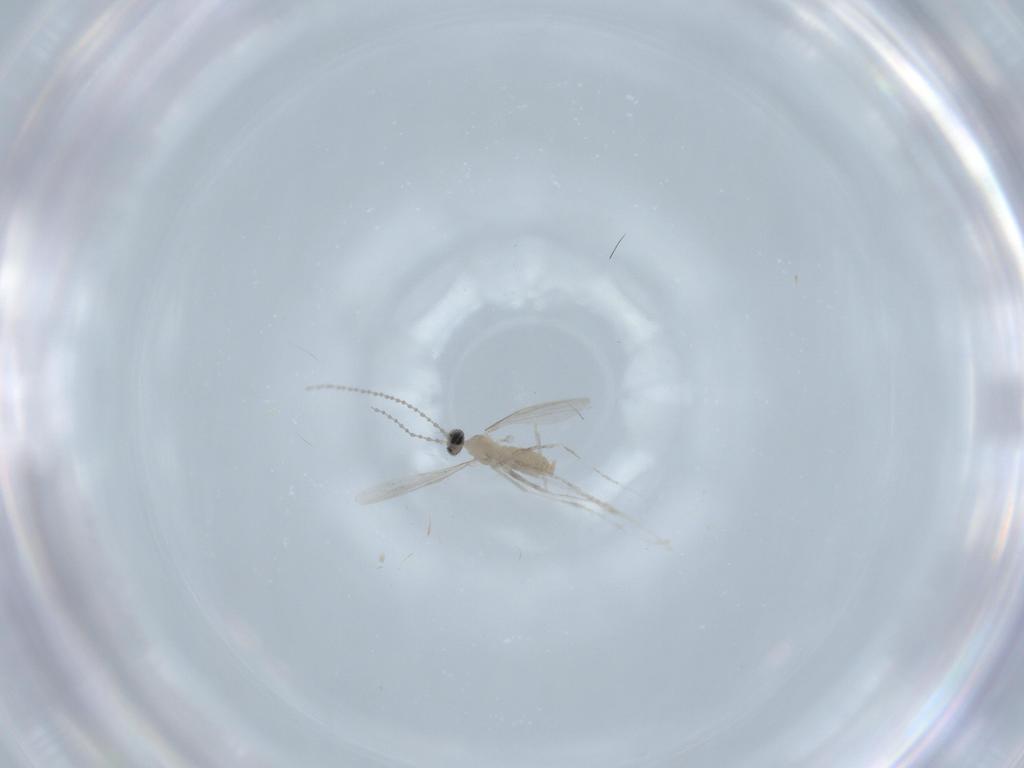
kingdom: Animalia
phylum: Arthropoda
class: Insecta
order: Diptera
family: Cecidomyiidae
